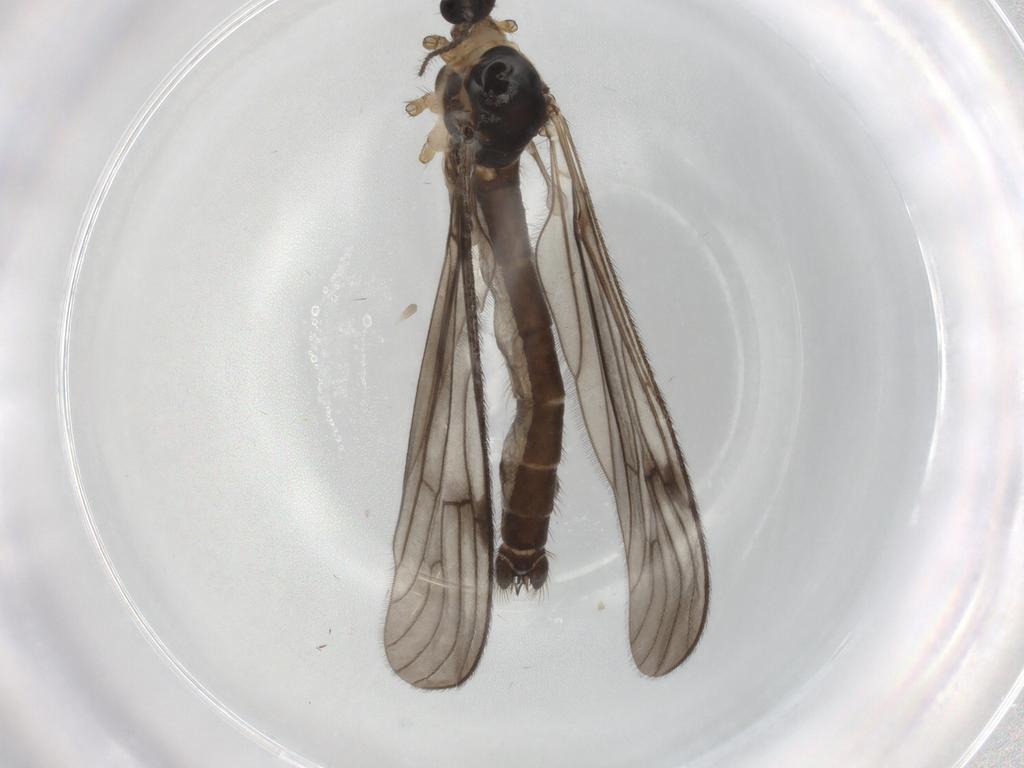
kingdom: Animalia
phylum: Arthropoda
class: Insecta
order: Diptera
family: Limoniidae
